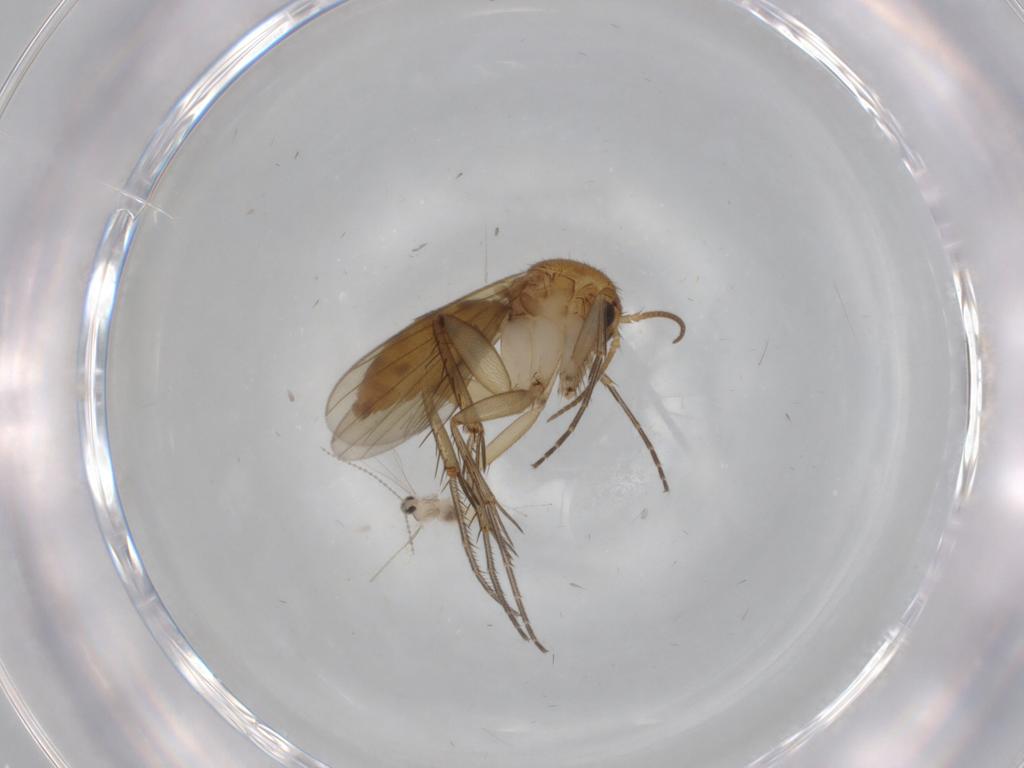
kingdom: Animalia
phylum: Arthropoda
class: Insecta
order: Diptera
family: Mycetophilidae
